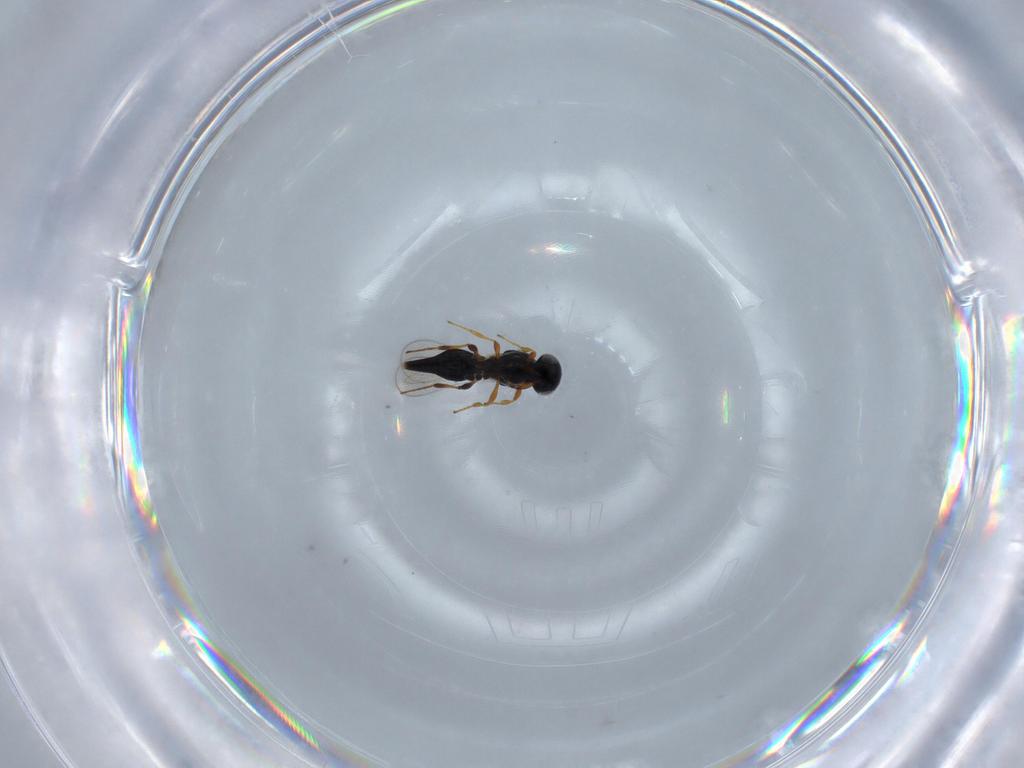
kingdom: Animalia
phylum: Arthropoda
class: Insecta
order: Hymenoptera
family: Platygastridae
